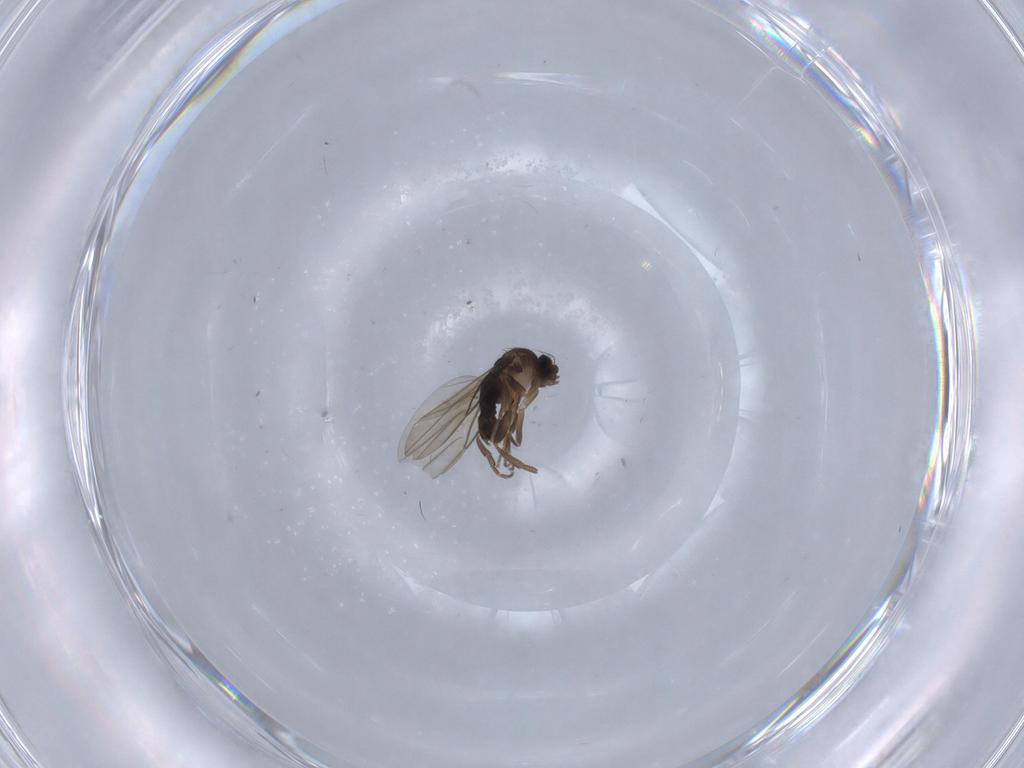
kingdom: Animalia
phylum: Arthropoda
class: Insecta
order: Diptera
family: Phoridae
